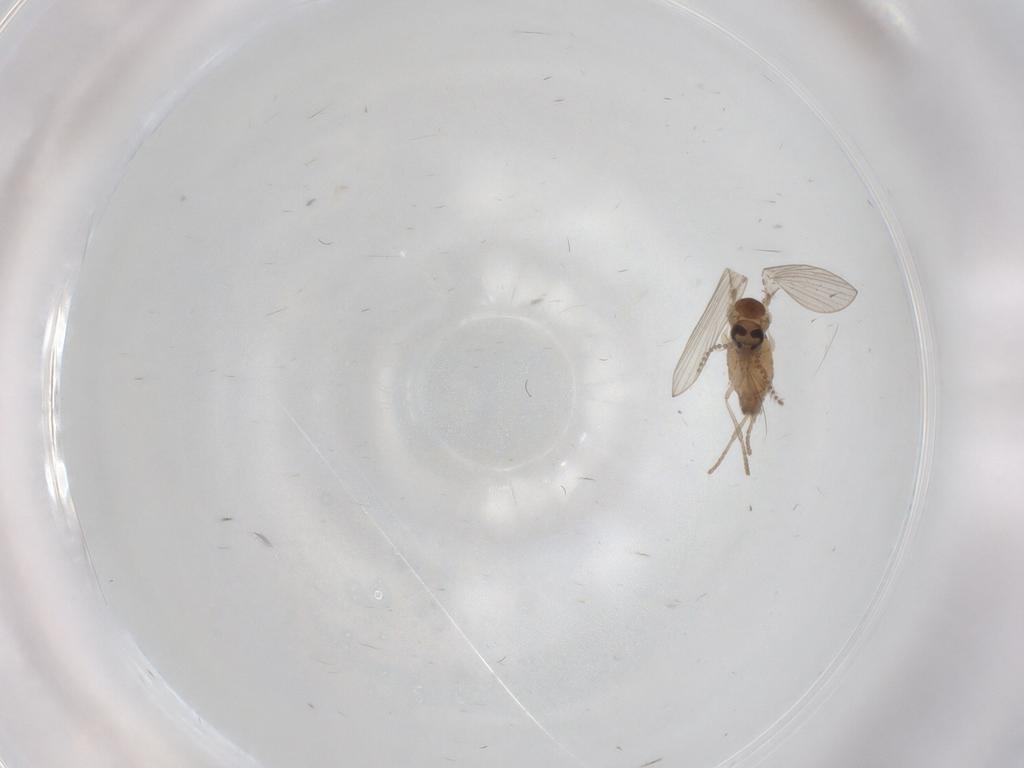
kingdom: Animalia
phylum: Arthropoda
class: Insecta
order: Diptera
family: Psychodidae
